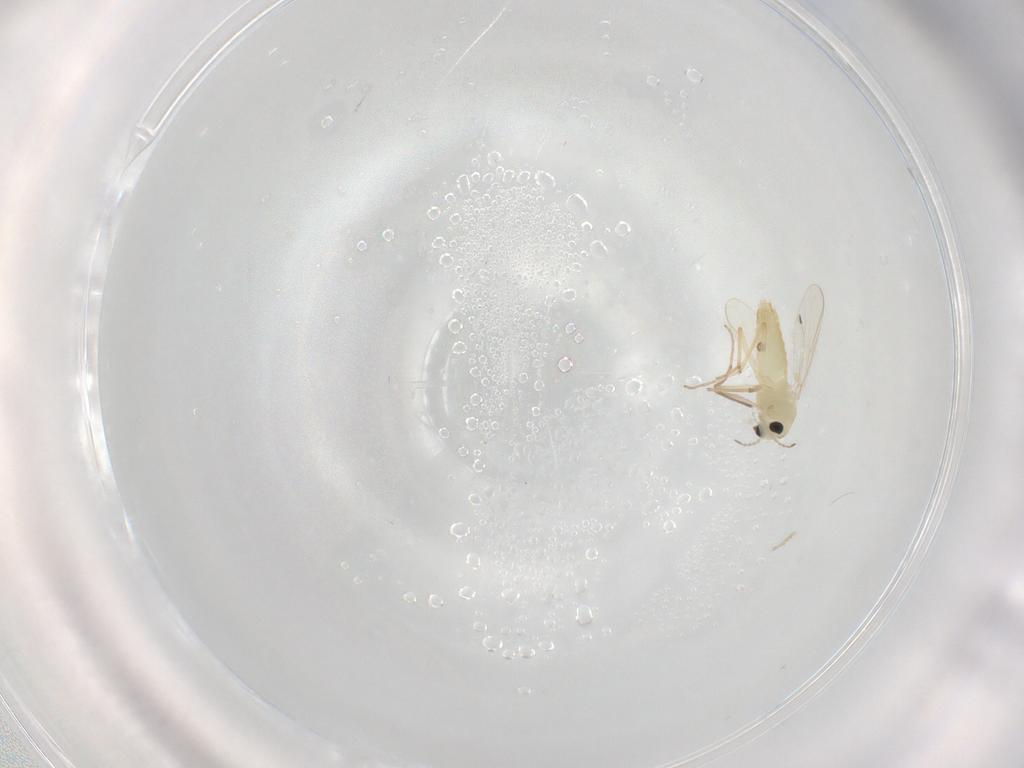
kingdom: Animalia
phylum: Arthropoda
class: Insecta
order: Diptera
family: Chironomidae
